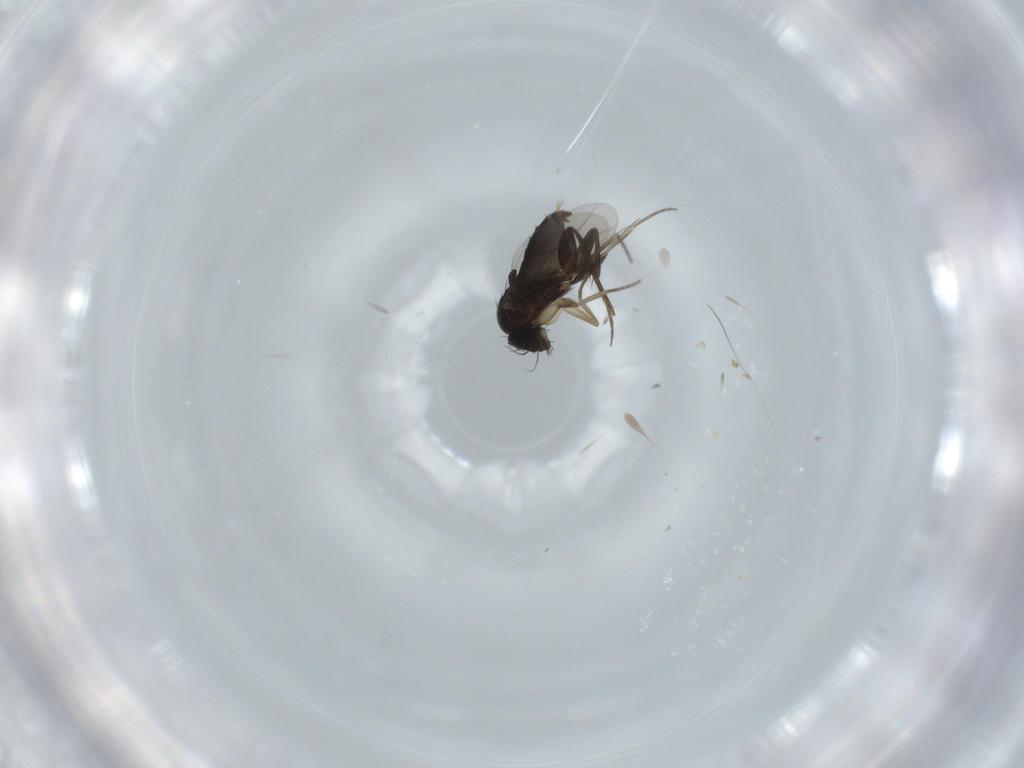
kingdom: Animalia
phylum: Arthropoda
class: Insecta
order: Diptera
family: Phoridae
